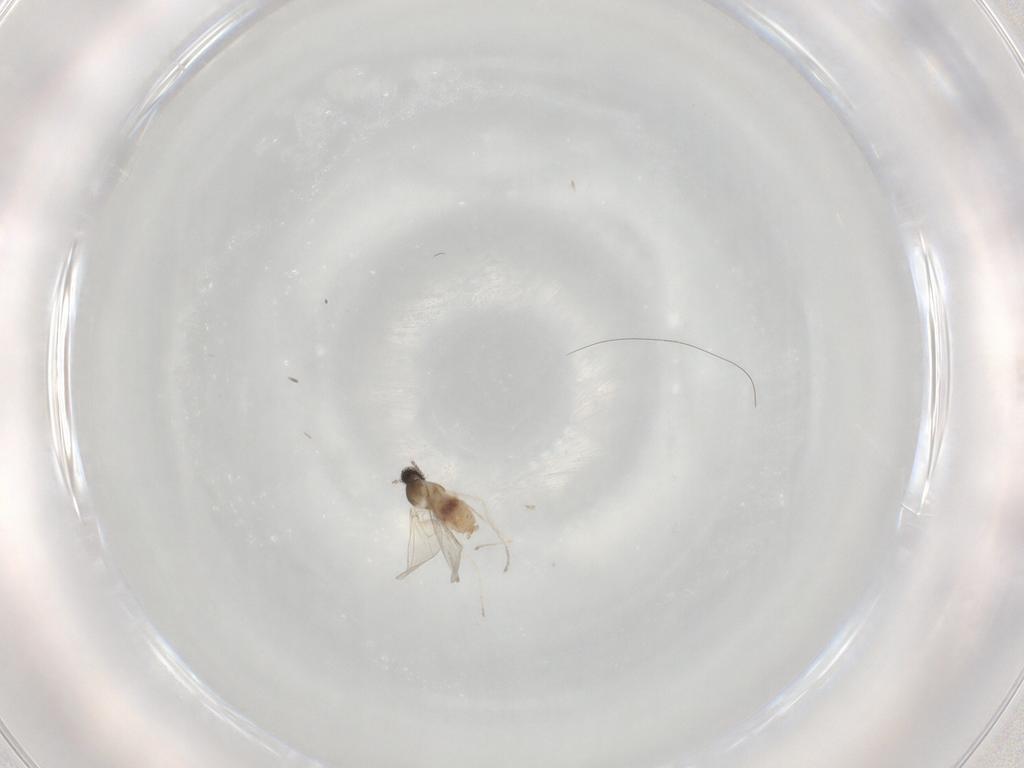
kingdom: Animalia
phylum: Arthropoda
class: Insecta
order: Diptera
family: Cecidomyiidae
